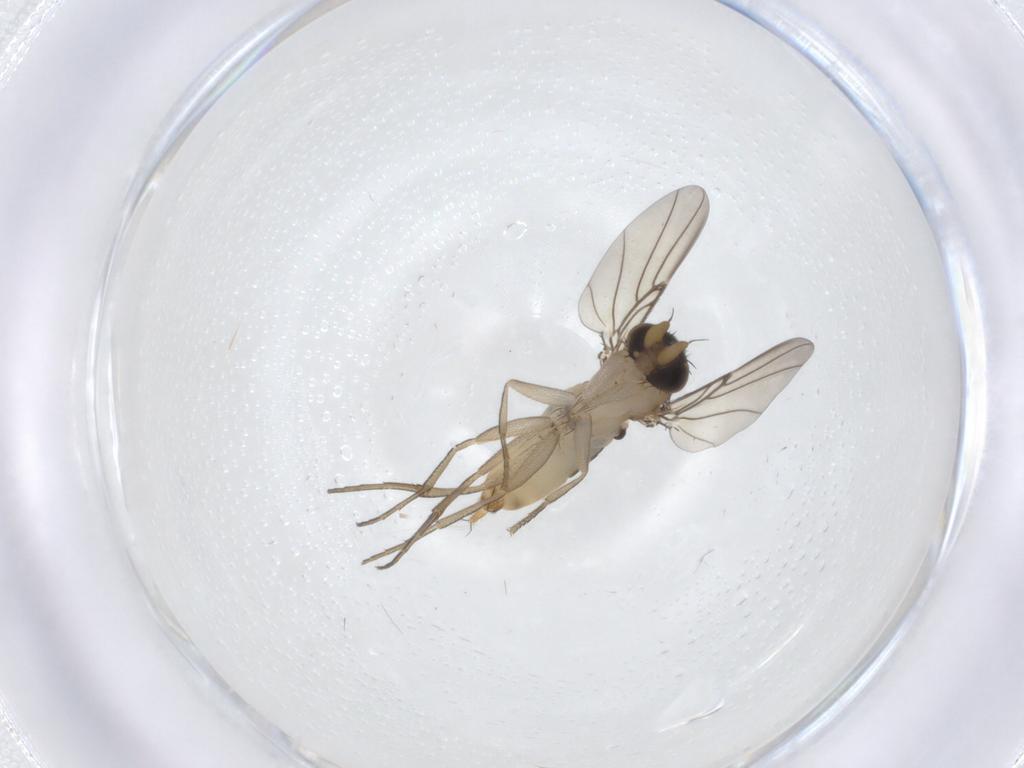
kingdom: Animalia
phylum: Arthropoda
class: Insecta
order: Diptera
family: Phoridae
